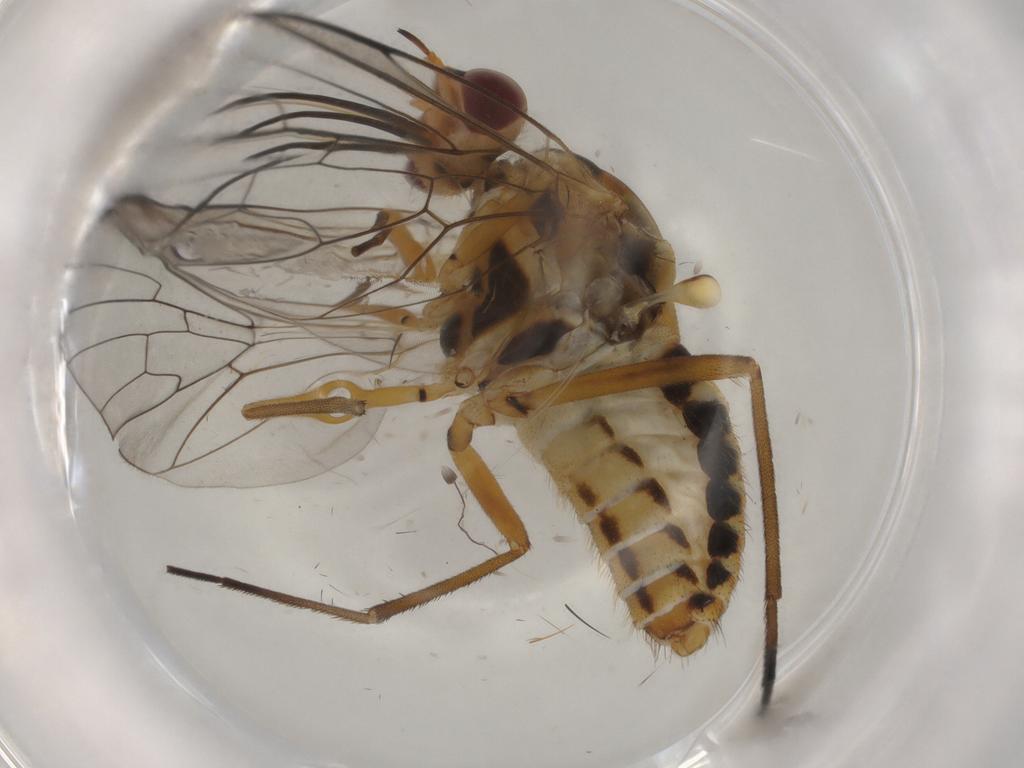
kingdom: Animalia
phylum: Arthropoda
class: Insecta
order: Diptera
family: Bombyliidae
